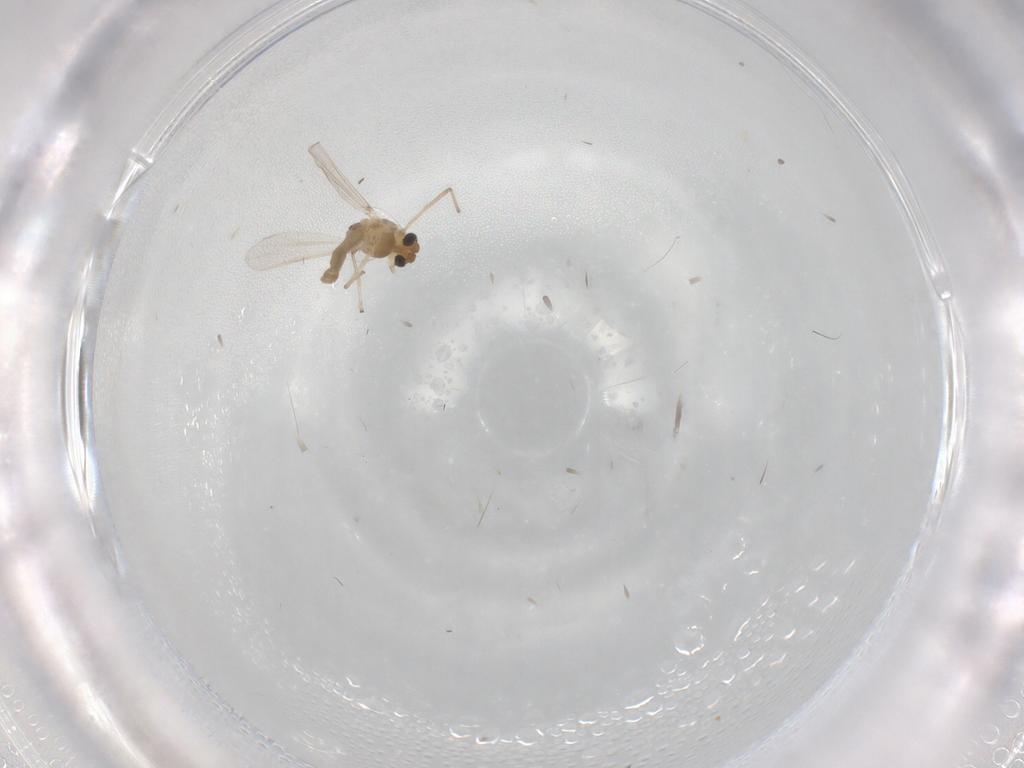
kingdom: Animalia
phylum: Arthropoda
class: Insecta
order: Diptera
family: Chironomidae
